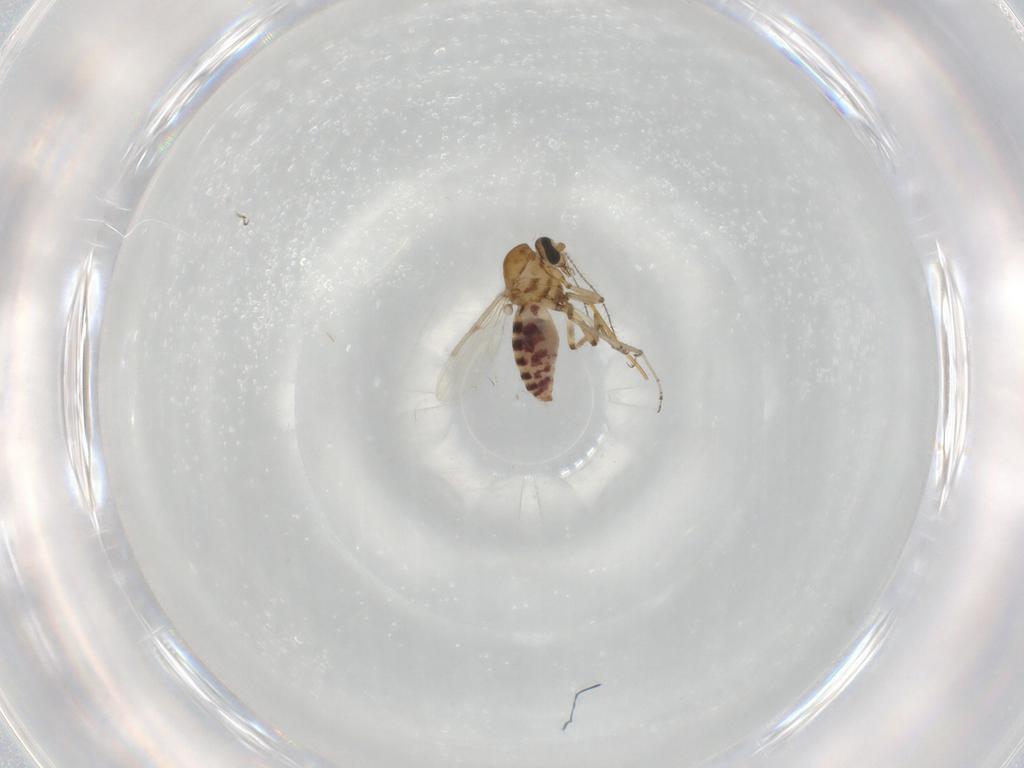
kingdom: Animalia
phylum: Arthropoda
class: Insecta
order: Diptera
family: Ceratopogonidae
